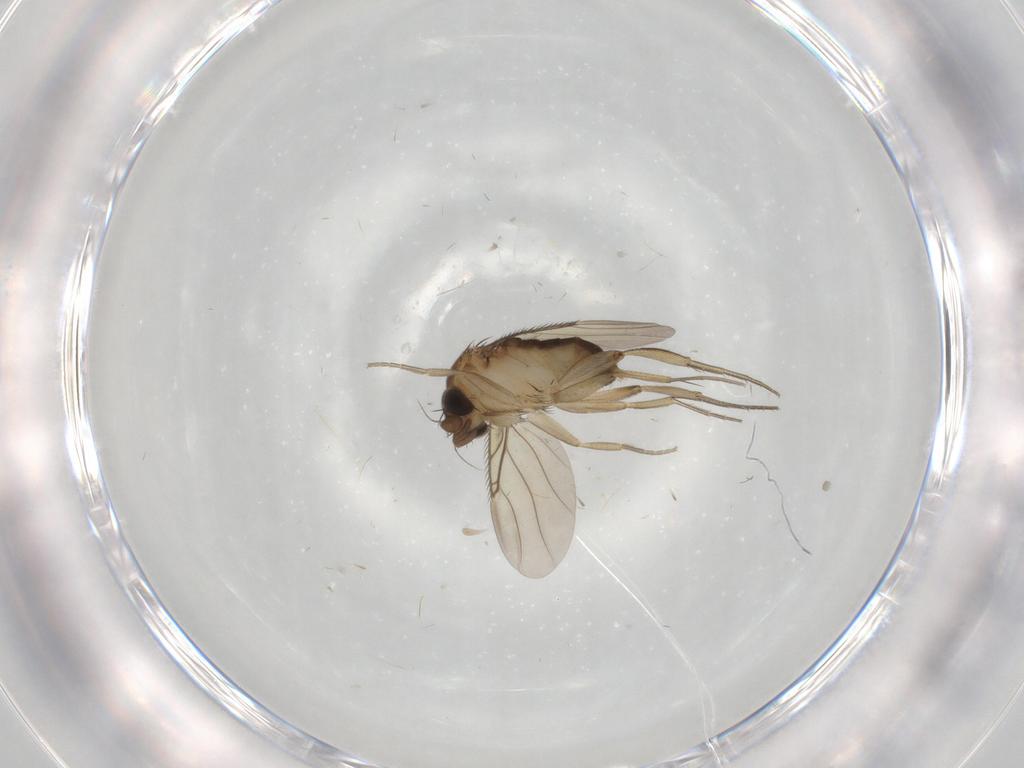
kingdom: Animalia
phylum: Arthropoda
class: Insecta
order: Diptera
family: Phoridae
